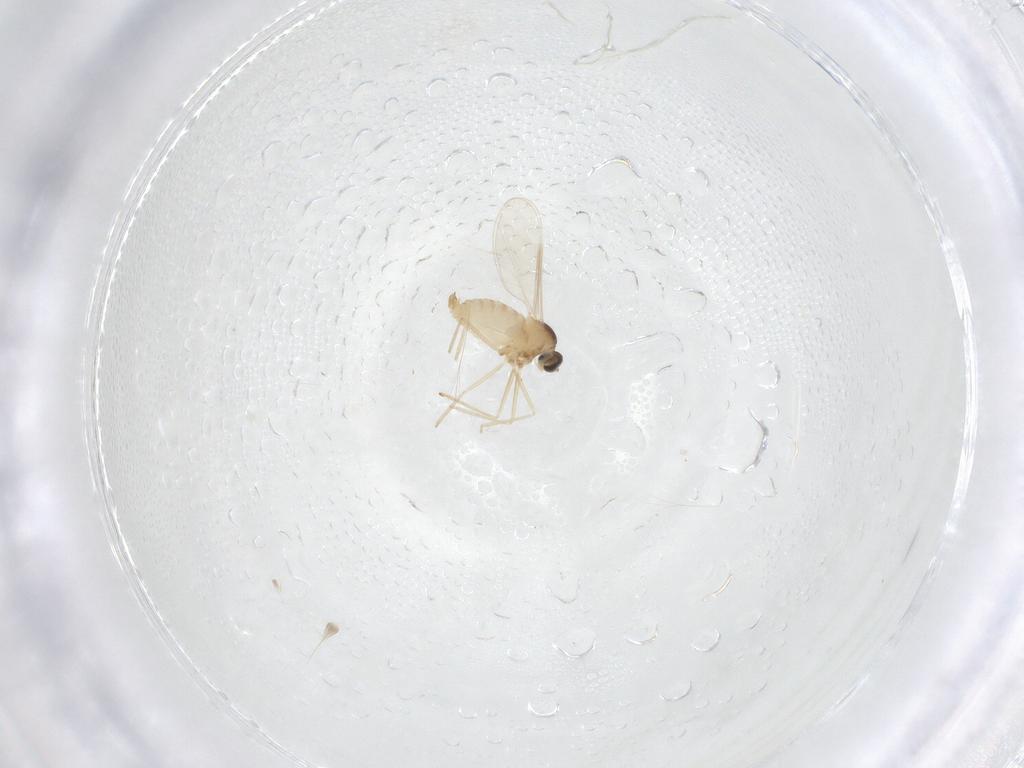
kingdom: Animalia
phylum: Arthropoda
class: Insecta
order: Diptera
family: Cecidomyiidae
